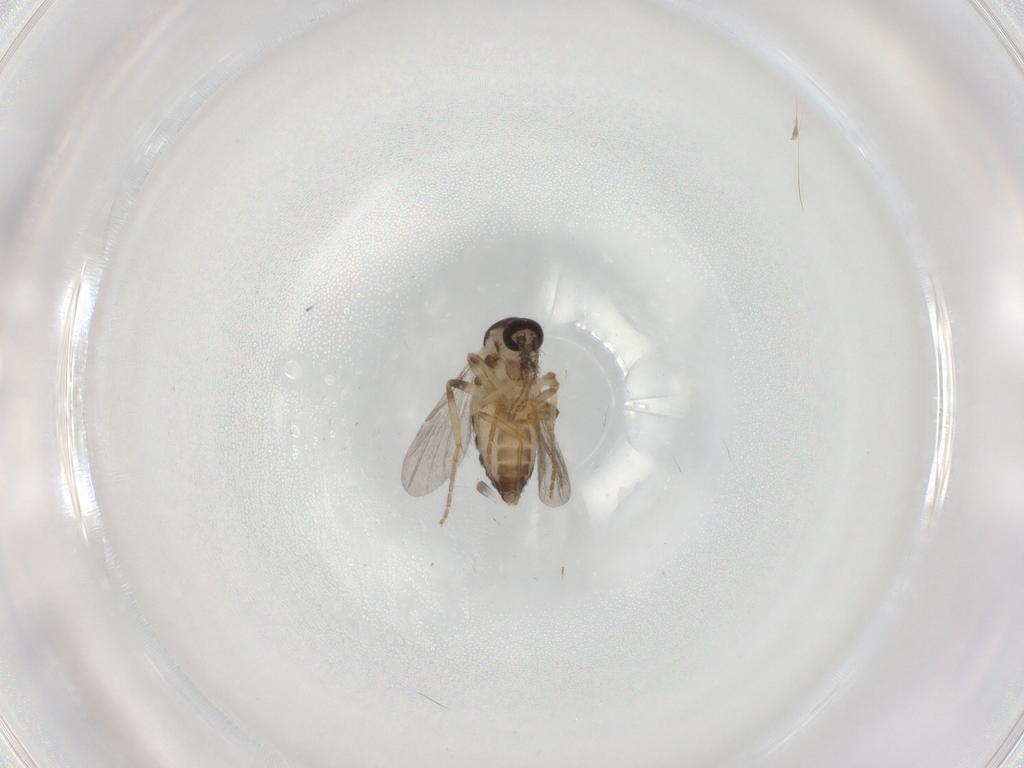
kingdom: Animalia
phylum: Arthropoda
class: Insecta
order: Diptera
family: Ceratopogonidae
